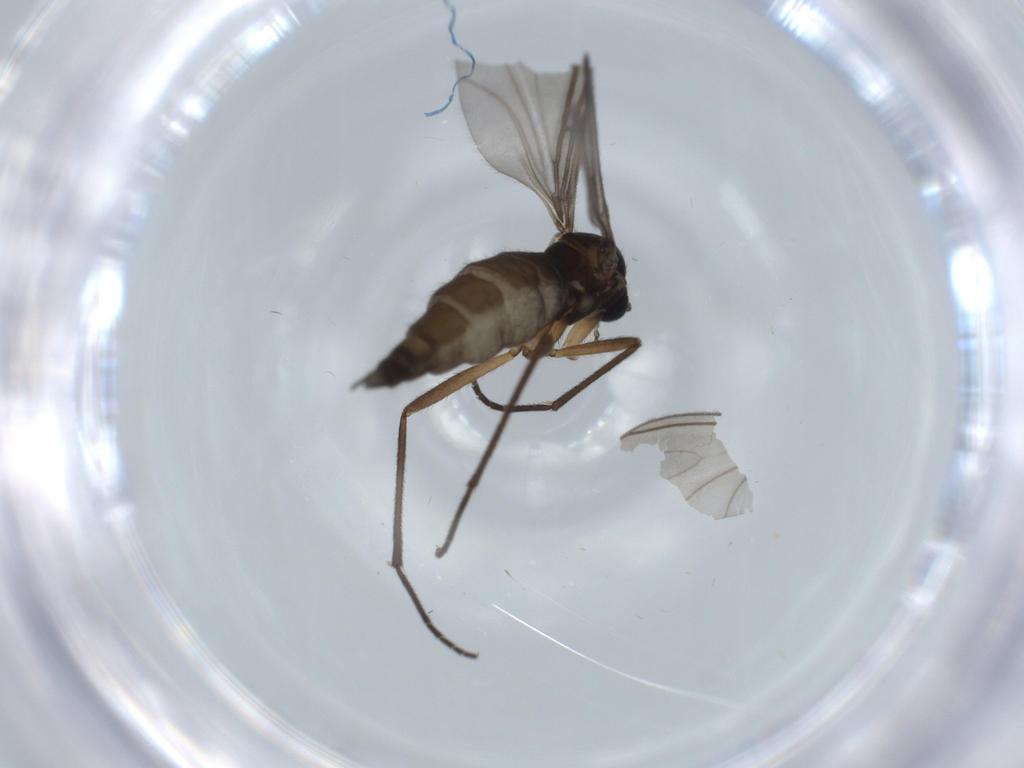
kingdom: Animalia
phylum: Arthropoda
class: Insecta
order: Diptera
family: Sciaridae
